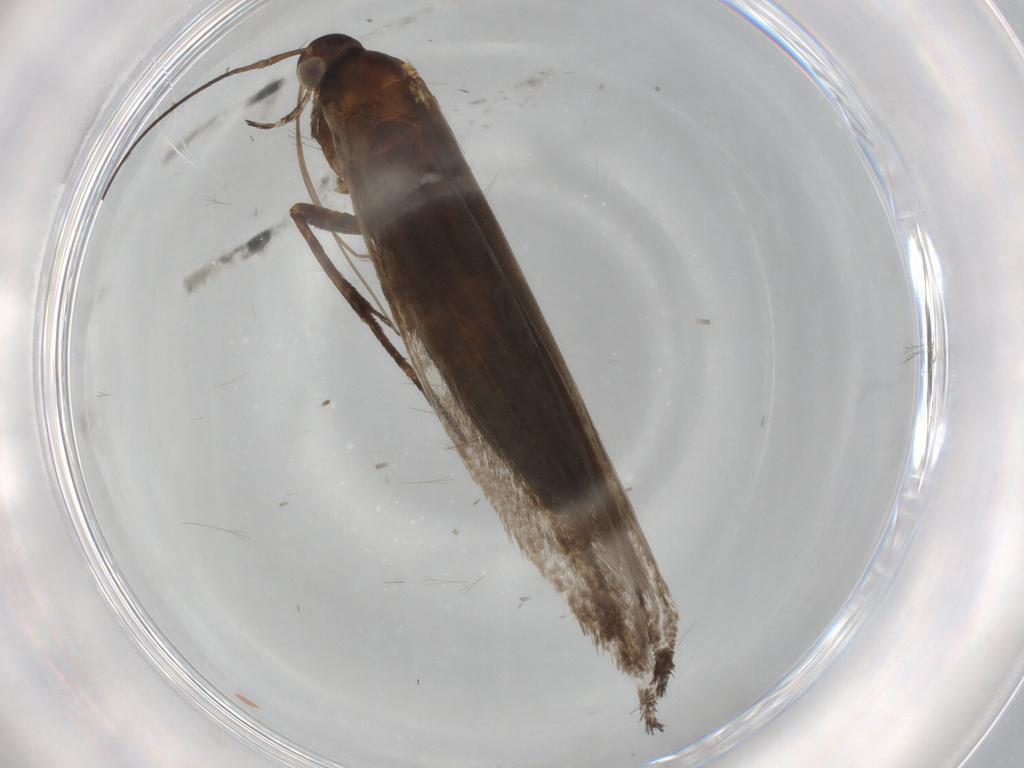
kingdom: Animalia
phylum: Arthropoda
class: Insecta
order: Lepidoptera
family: Coleophoridae
